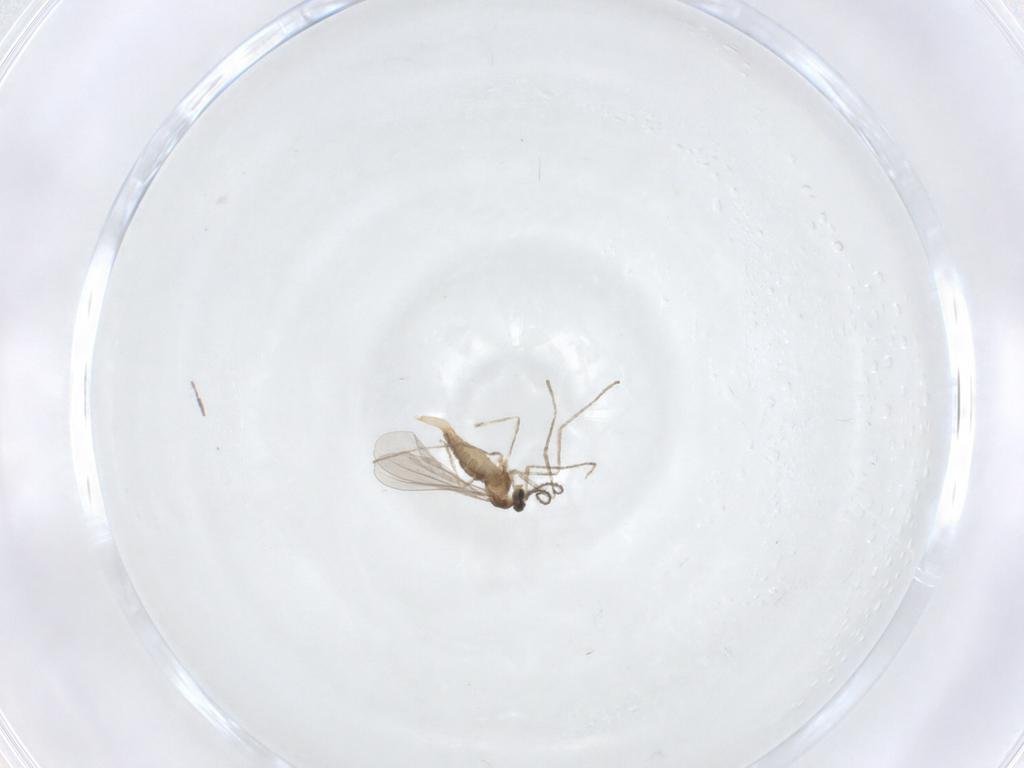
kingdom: Animalia
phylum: Arthropoda
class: Insecta
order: Diptera
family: Cecidomyiidae
